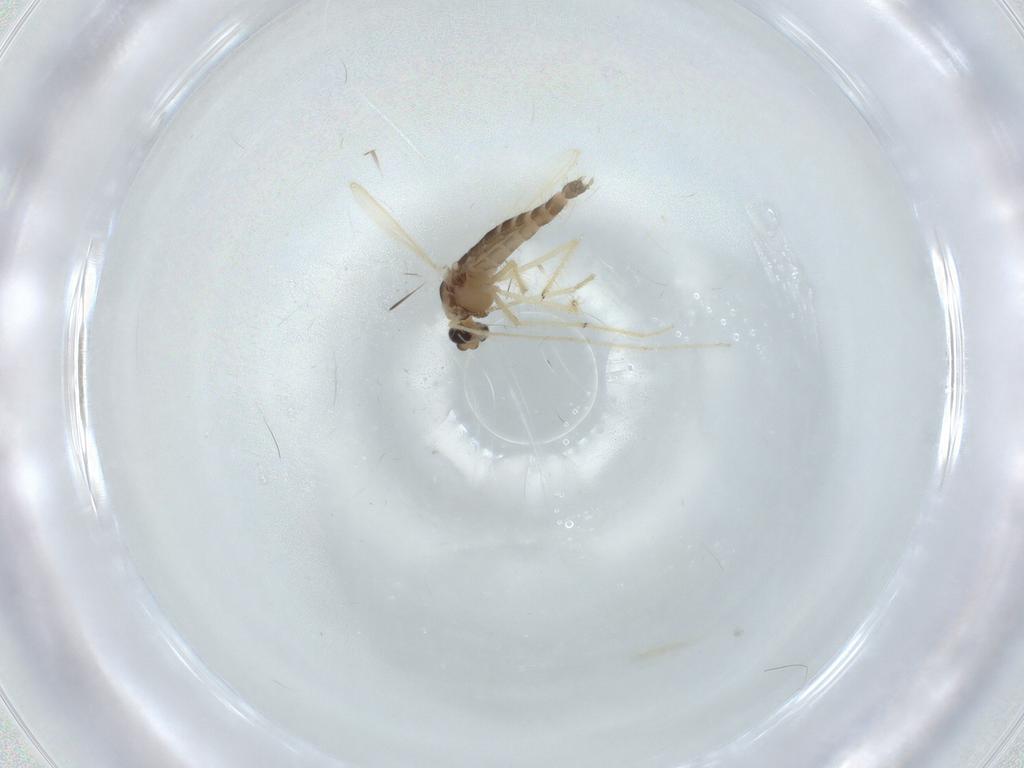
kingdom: Animalia
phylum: Arthropoda
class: Insecta
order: Diptera
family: Chironomidae
